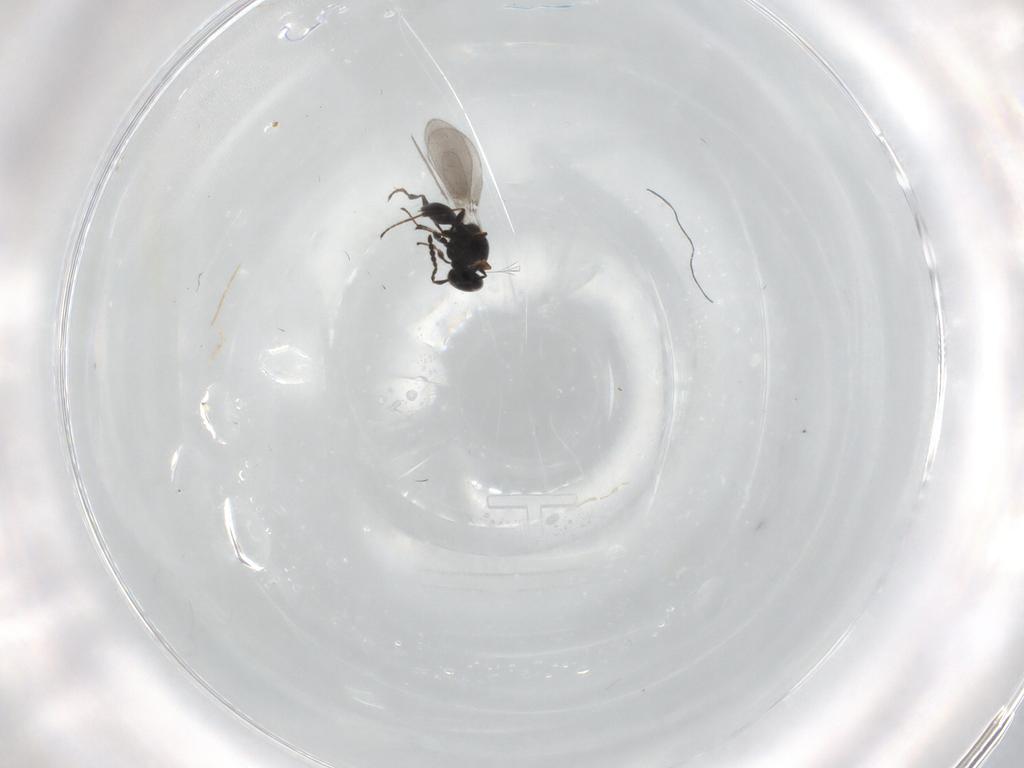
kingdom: Animalia
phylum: Arthropoda
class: Insecta
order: Hymenoptera
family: Platygastridae
